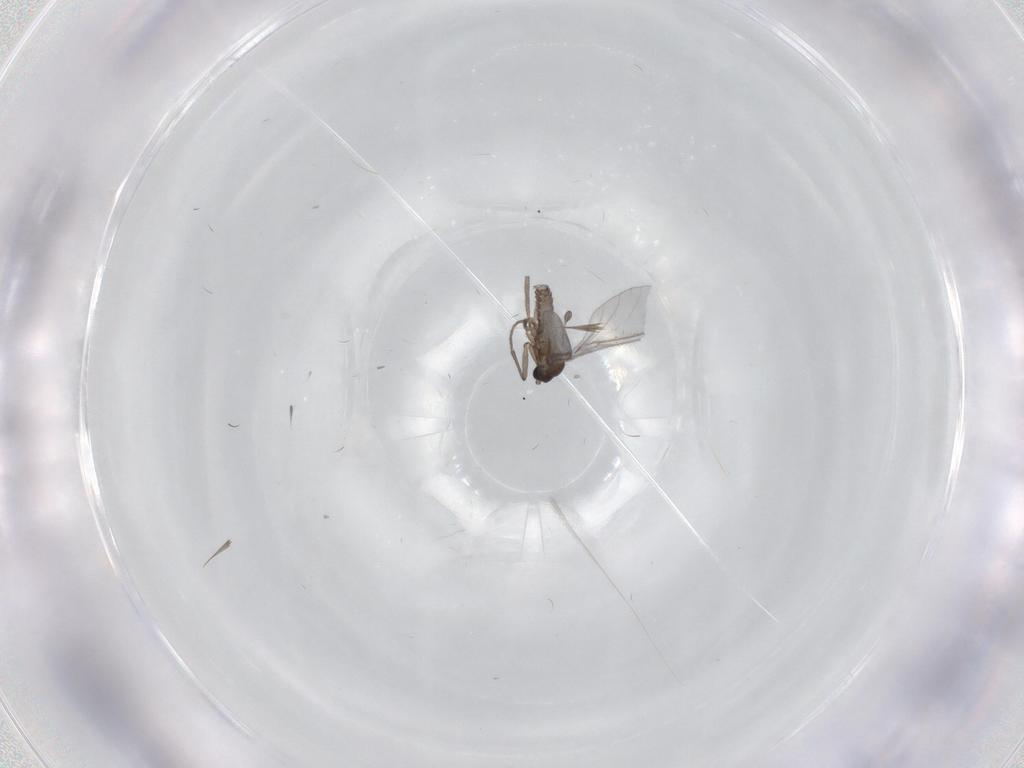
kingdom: Animalia
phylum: Arthropoda
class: Insecta
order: Diptera
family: Sciaridae
